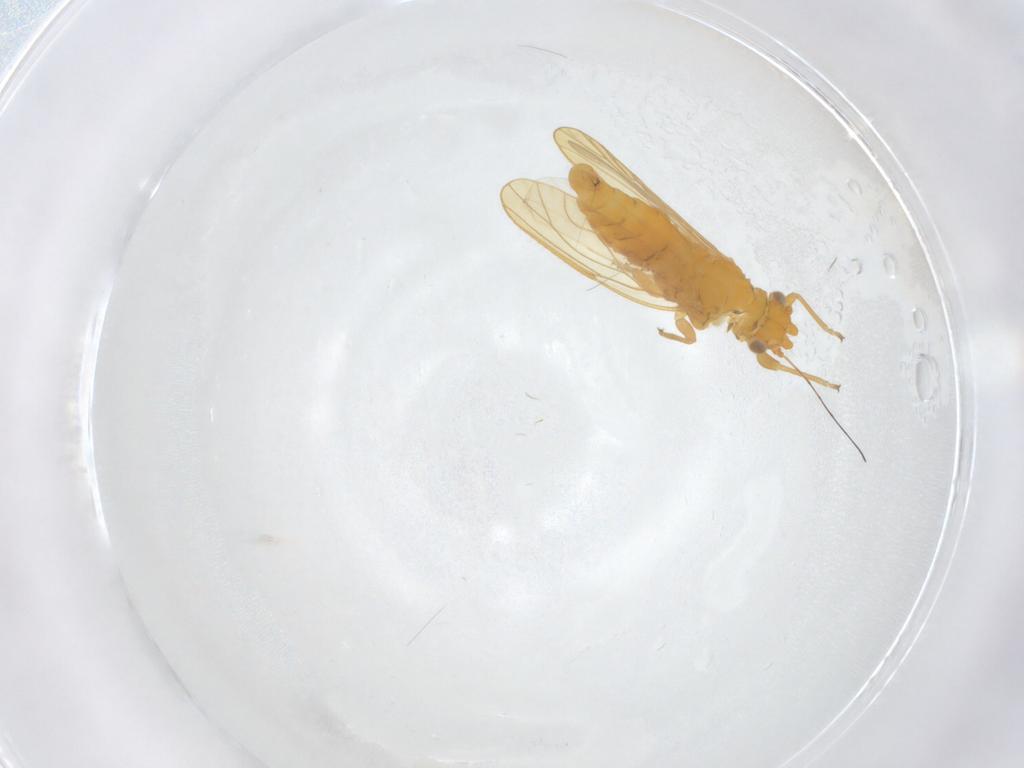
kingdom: Animalia
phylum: Arthropoda
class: Insecta
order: Hemiptera
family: Psyllidae
